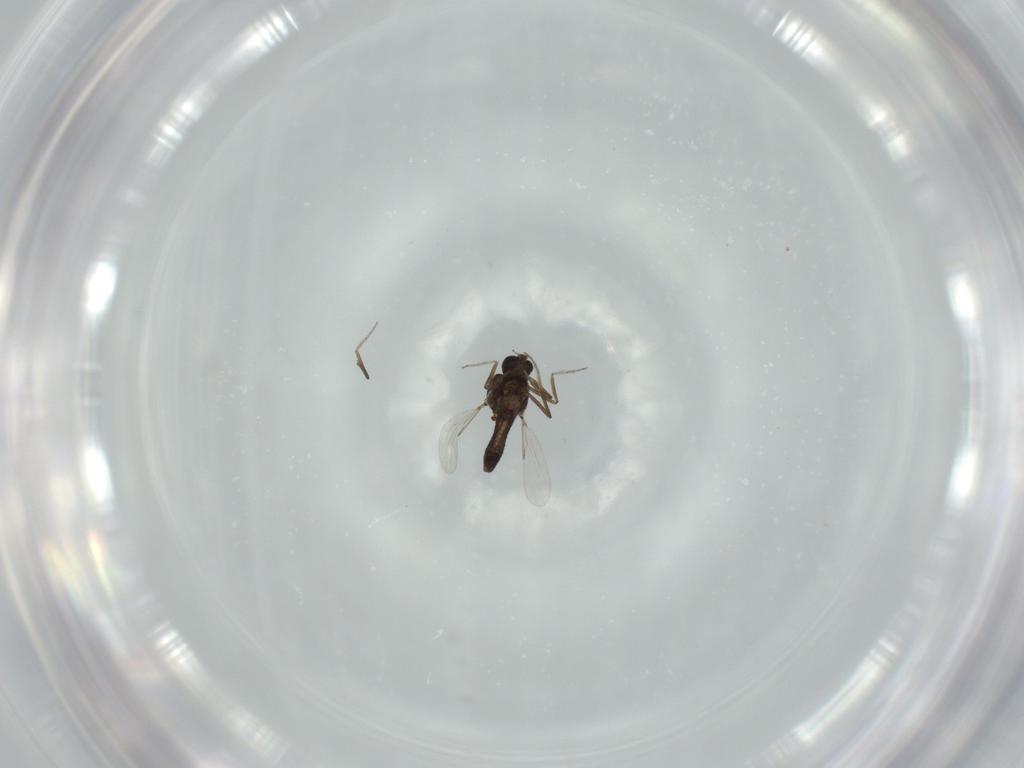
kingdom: Animalia
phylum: Arthropoda
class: Insecta
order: Diptera
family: Ceratopogonidae
